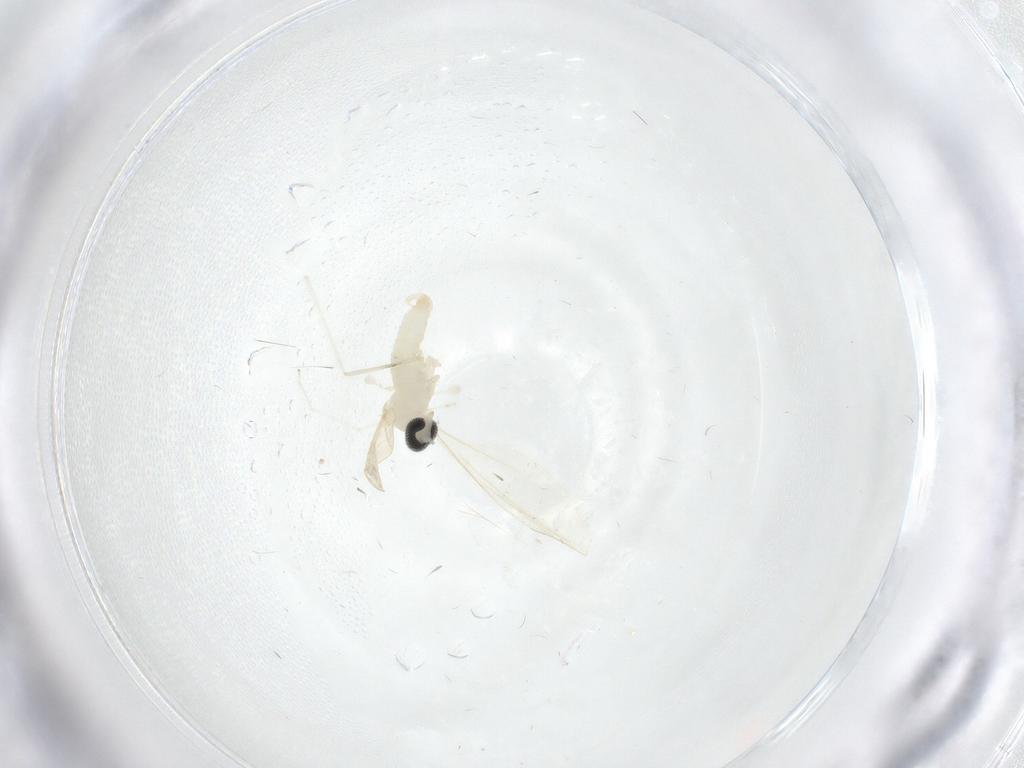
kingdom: Animalia
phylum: Arthropoda
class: Insecta
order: Diptera
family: Cecidomyiidae
